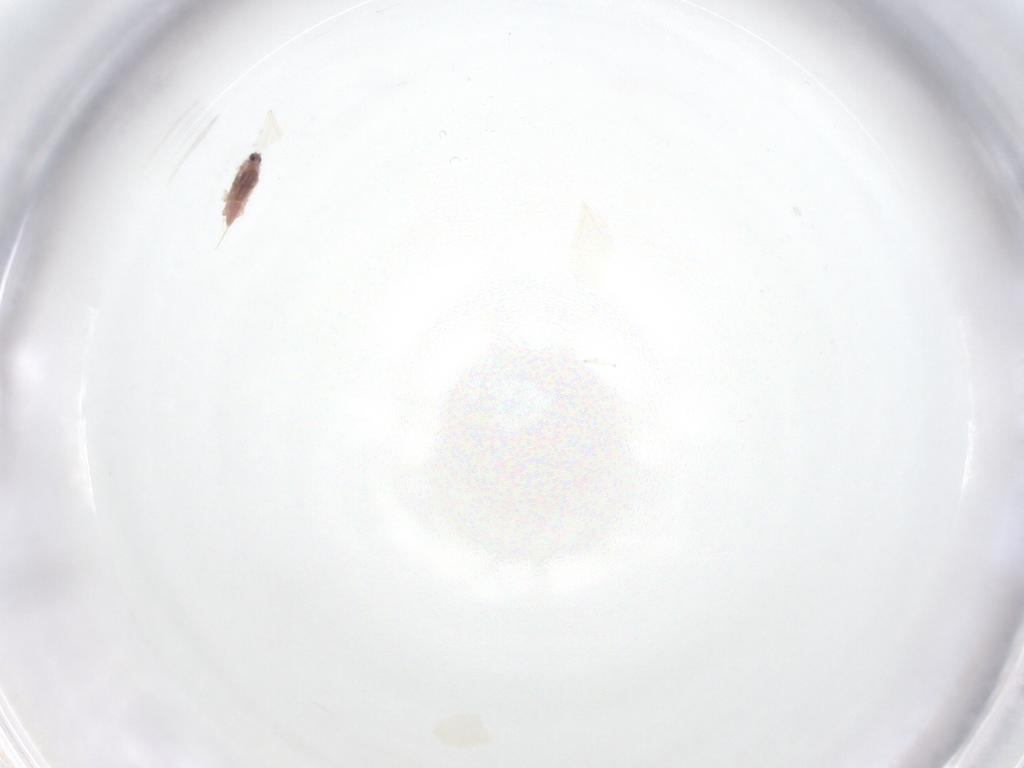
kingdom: Animalia
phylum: Arthropoda
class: Insecta
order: Hemiptera
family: Diaspididae
